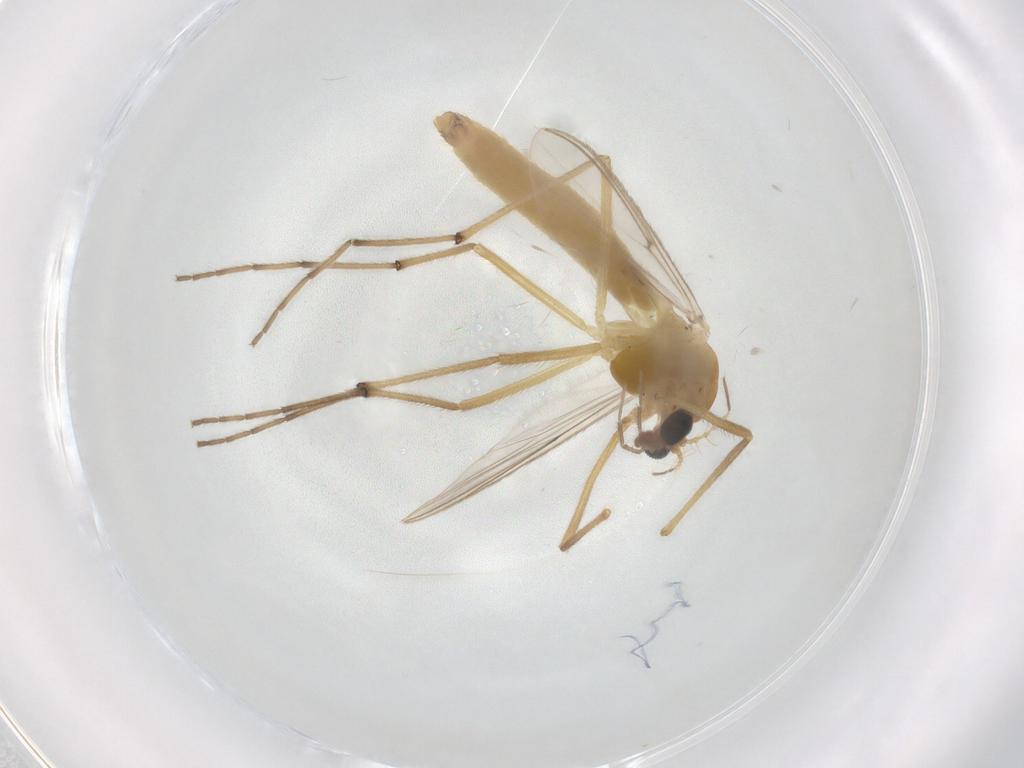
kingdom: Animalia
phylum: Arthropoda
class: Insecta
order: Diptera
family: Chironomidae
